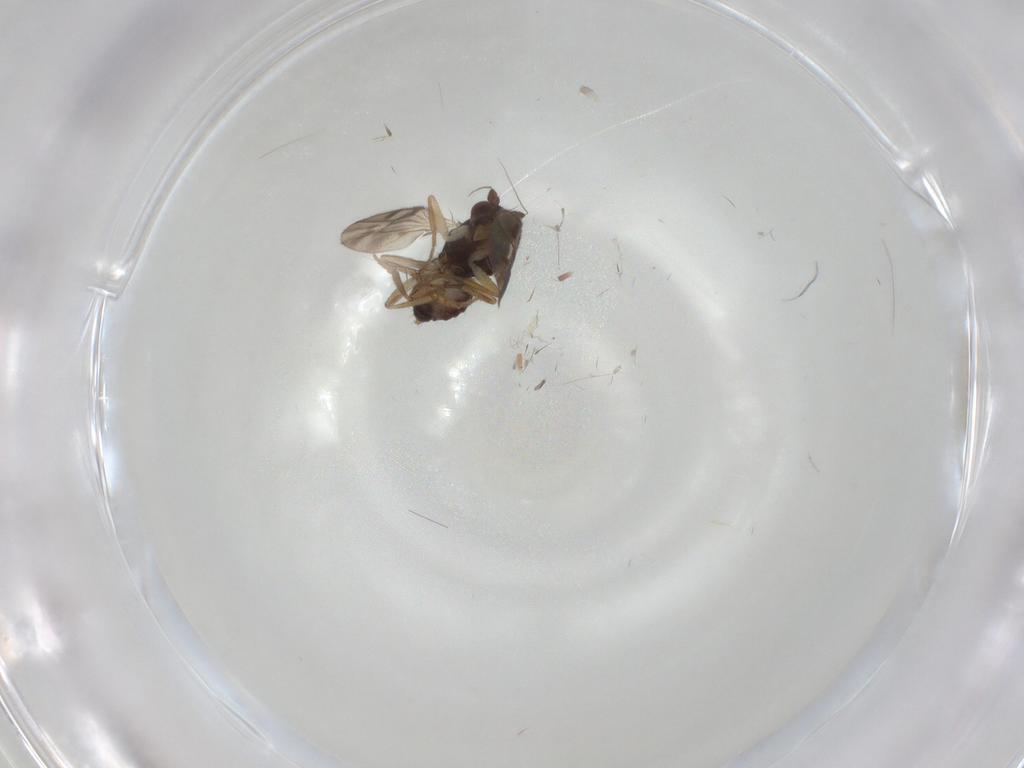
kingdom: Animalia
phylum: Arthropoda
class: Insecta
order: Diptera
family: Sphaeroceridae
